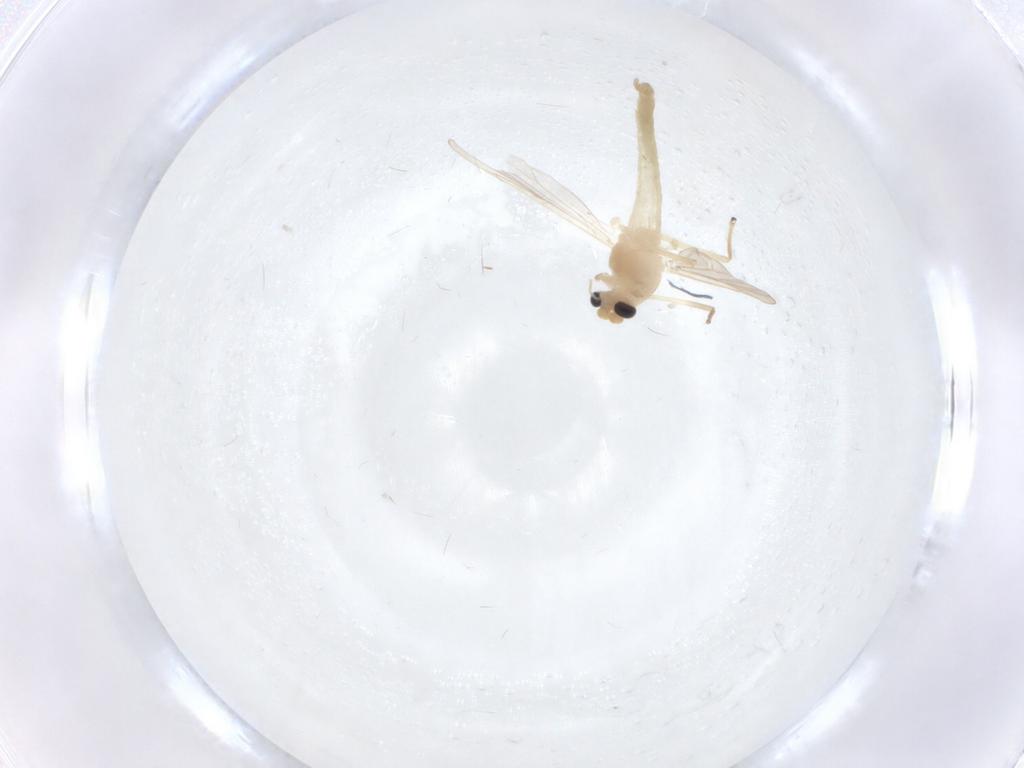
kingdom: Animalia
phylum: Arthropoda
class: Insecta
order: Diptera
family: Sciaridae
